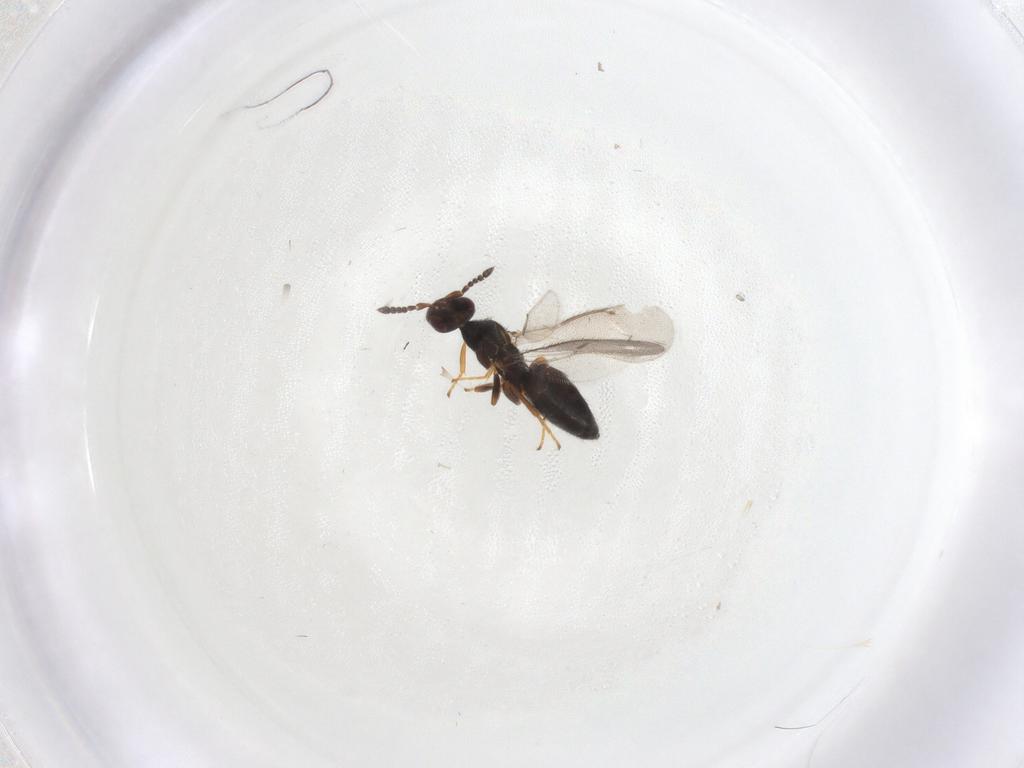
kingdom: Animalia
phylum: Arthropoda
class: Insecta
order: Hymenoptera
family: Eulophidae
